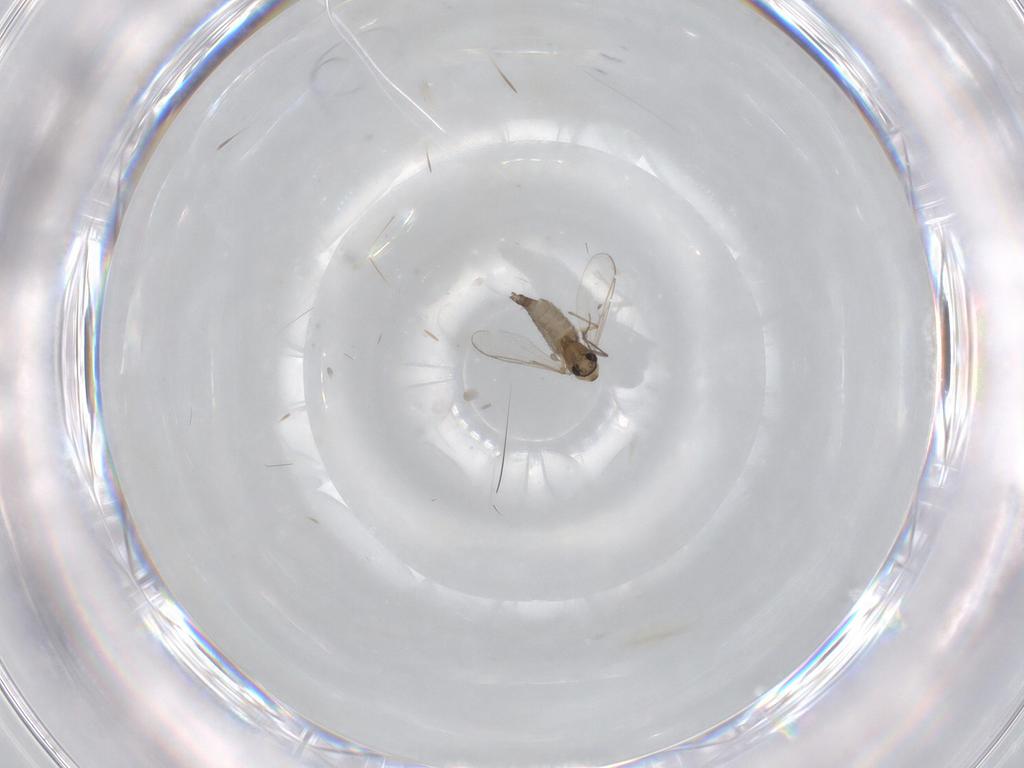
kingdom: Animalia
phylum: Arthropoda
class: Insecta
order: Diptera
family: Chironomidae
